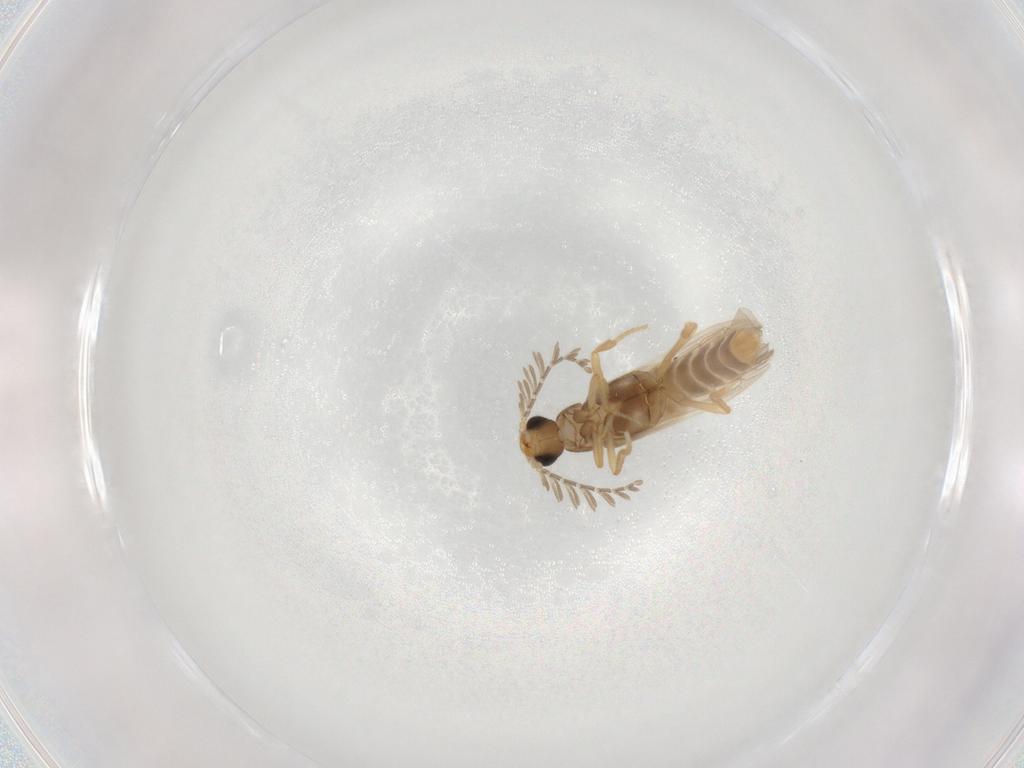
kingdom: Animalia
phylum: Arthropoda
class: Insecta
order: Coleoptera
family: Phengodidae
